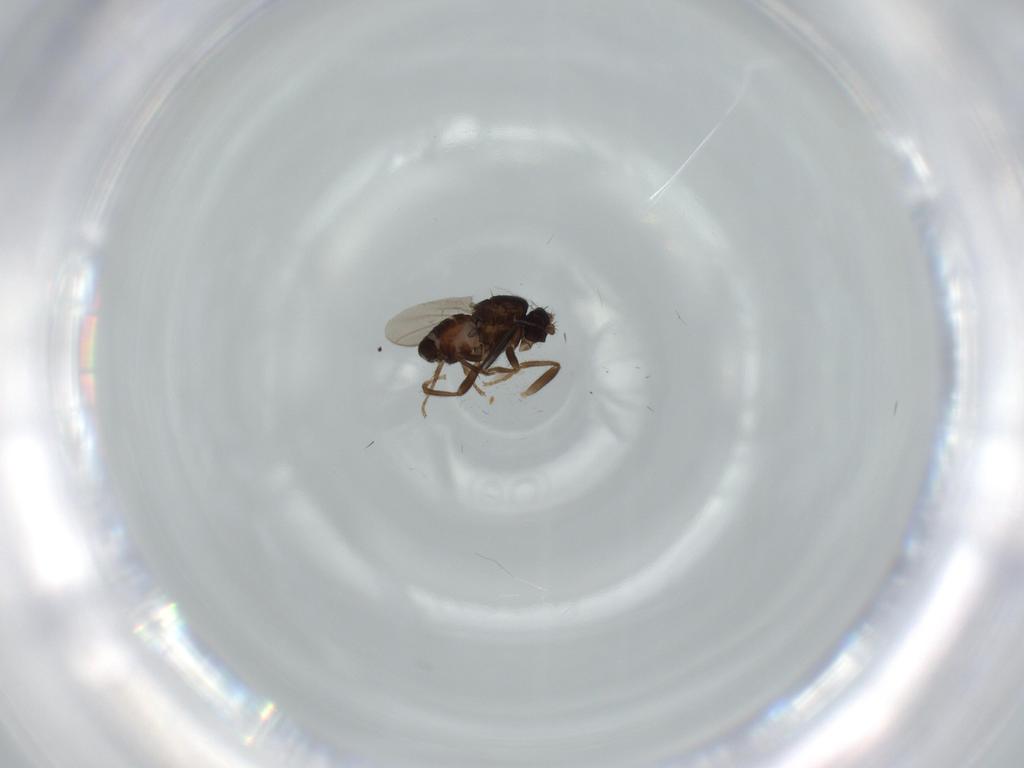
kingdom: Animalia
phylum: Arthropoda
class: Insecta
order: Diptera
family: Sphaeroceridae
